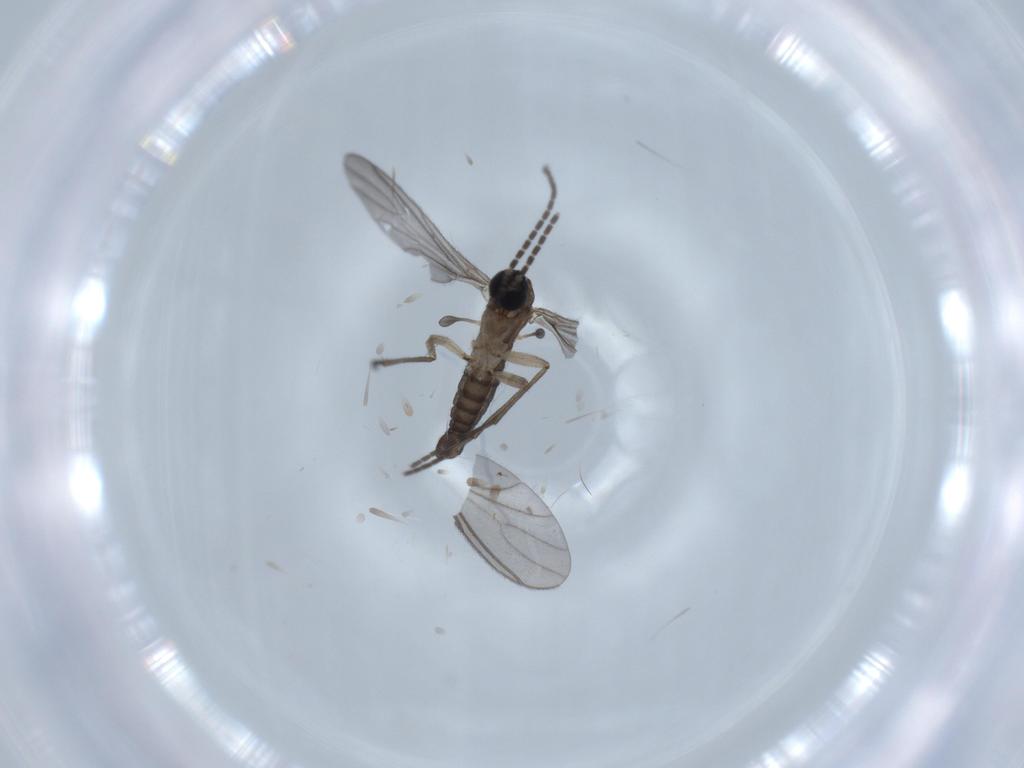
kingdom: Animalia
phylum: Arthropoda
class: Insecta
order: Diptera
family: Sciaridae
